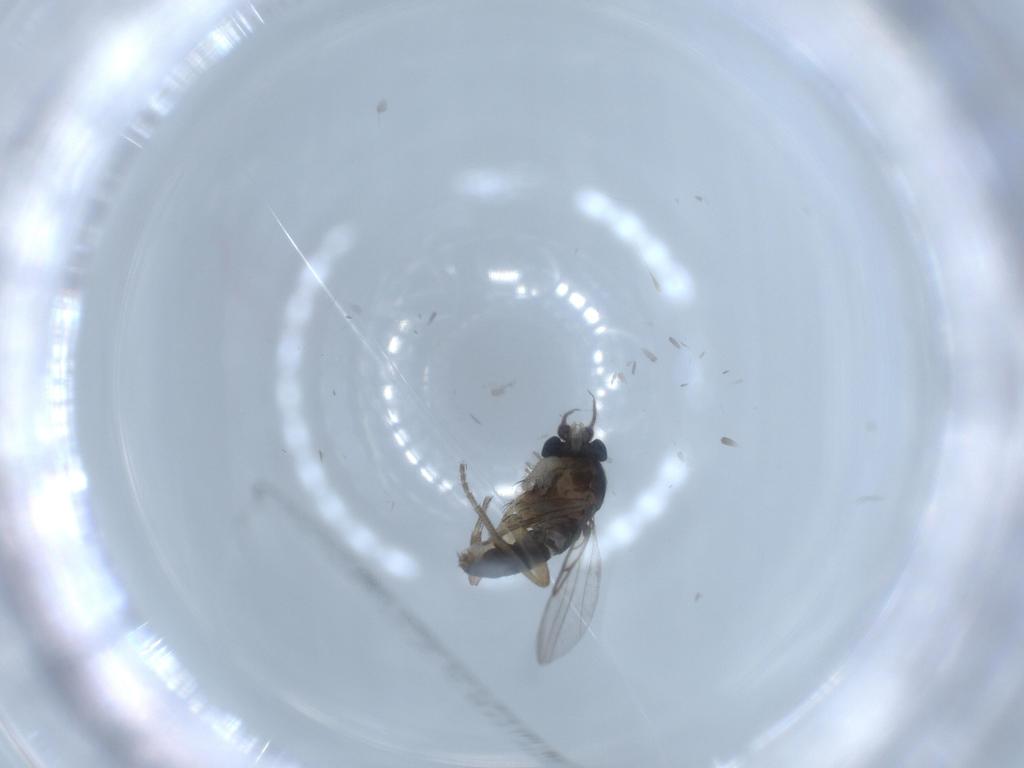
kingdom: Animalia
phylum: Arthropoda
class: Insecta
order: Diptera
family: Phoridae
